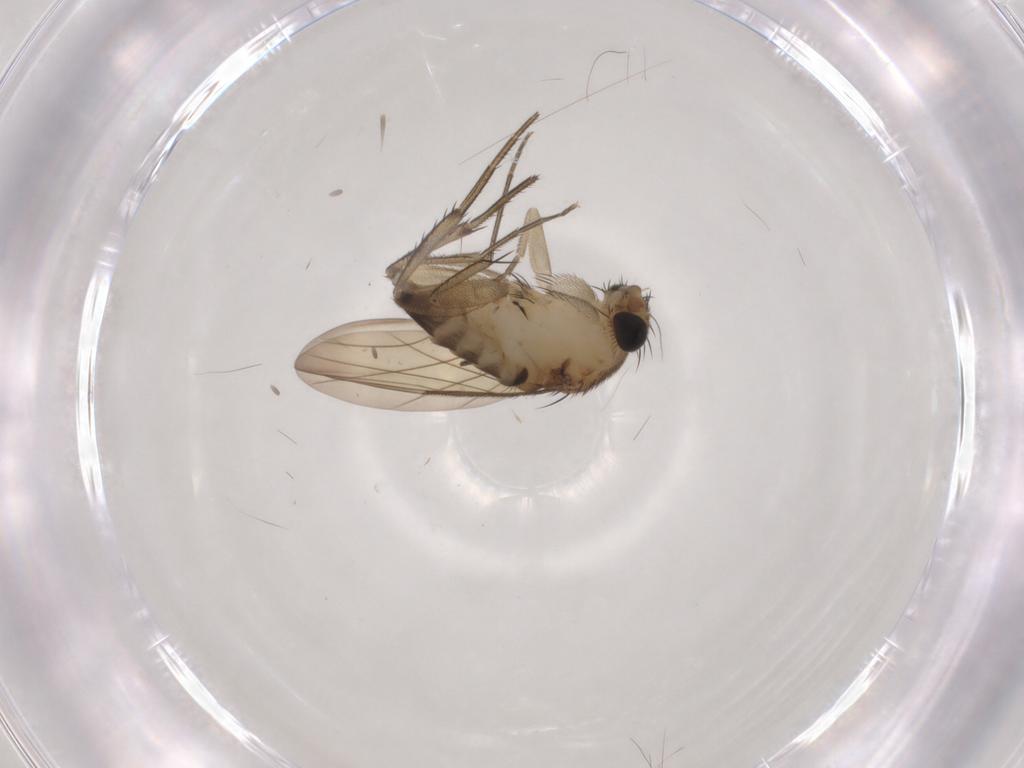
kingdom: Animalia
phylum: Arthropoda
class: Insecta
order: Diptera
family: Phoridae
